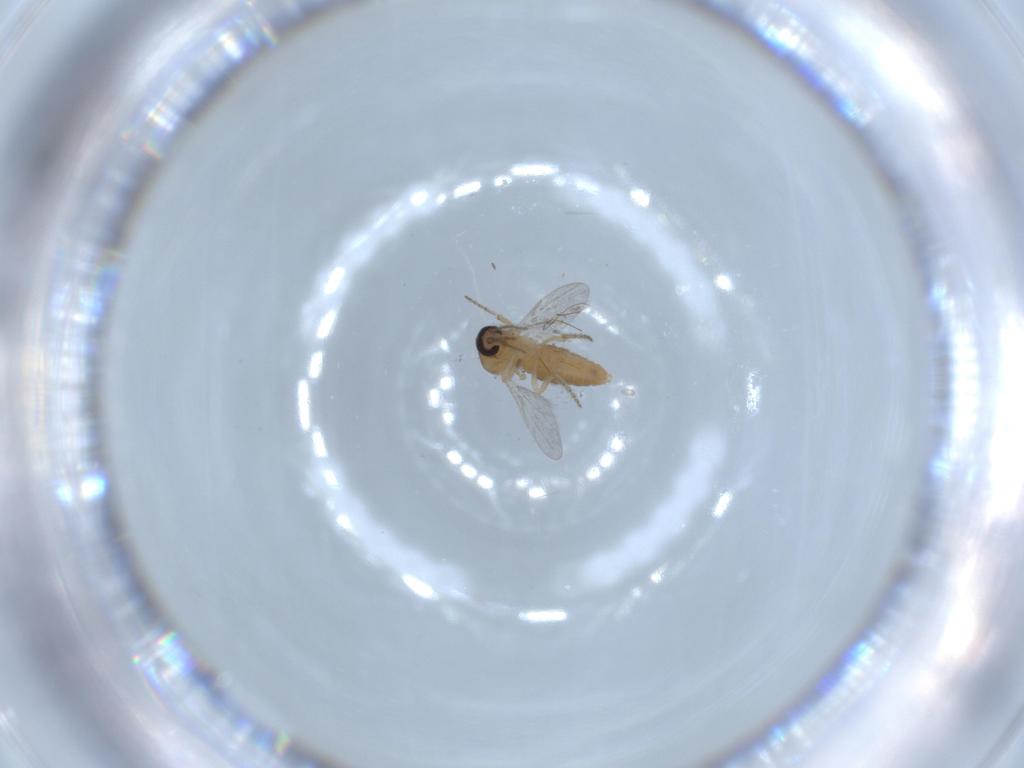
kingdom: Animalia
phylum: Arthropoda
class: Insecta
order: Diptera
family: Ceratopogonidae
